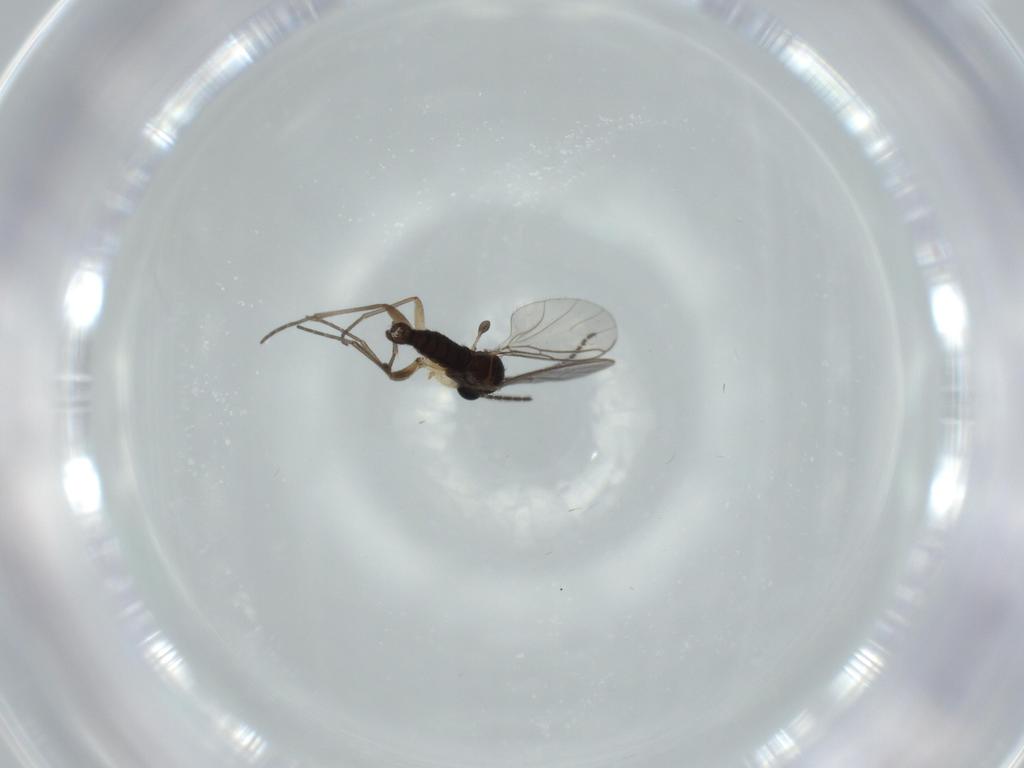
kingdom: Animalia
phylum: Arthropoda
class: Insecta
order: Diptera
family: Sciaridae
